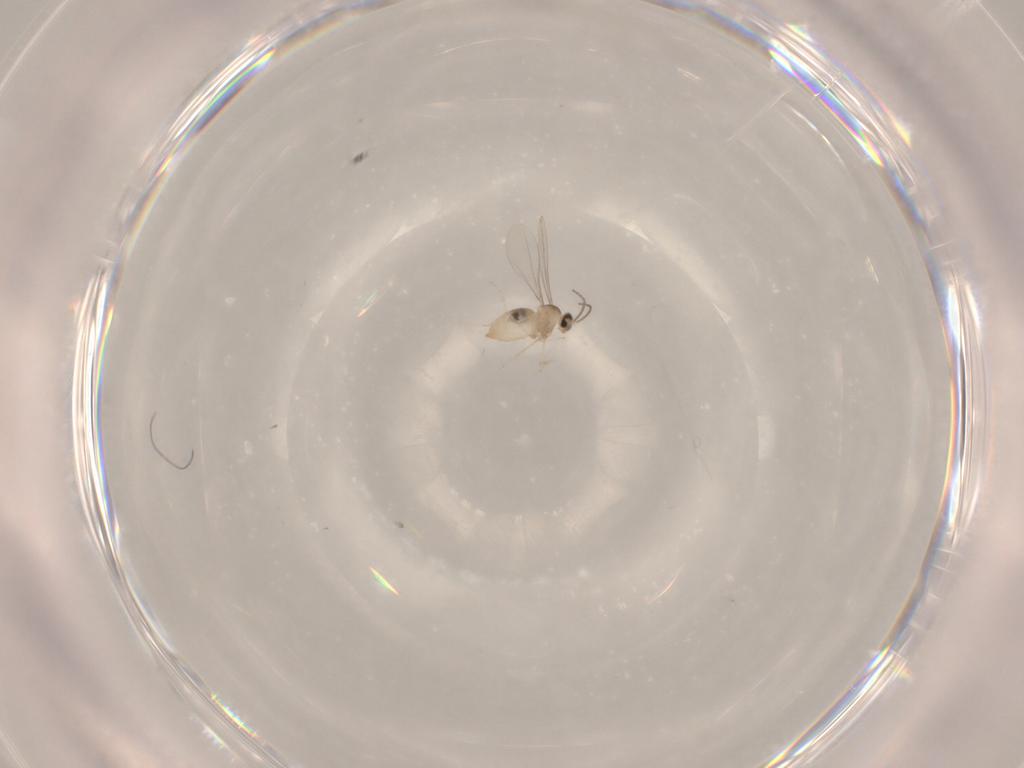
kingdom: Animalia
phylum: Arthropoda
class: Insecta
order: Diptera
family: Cecidomyiidae
